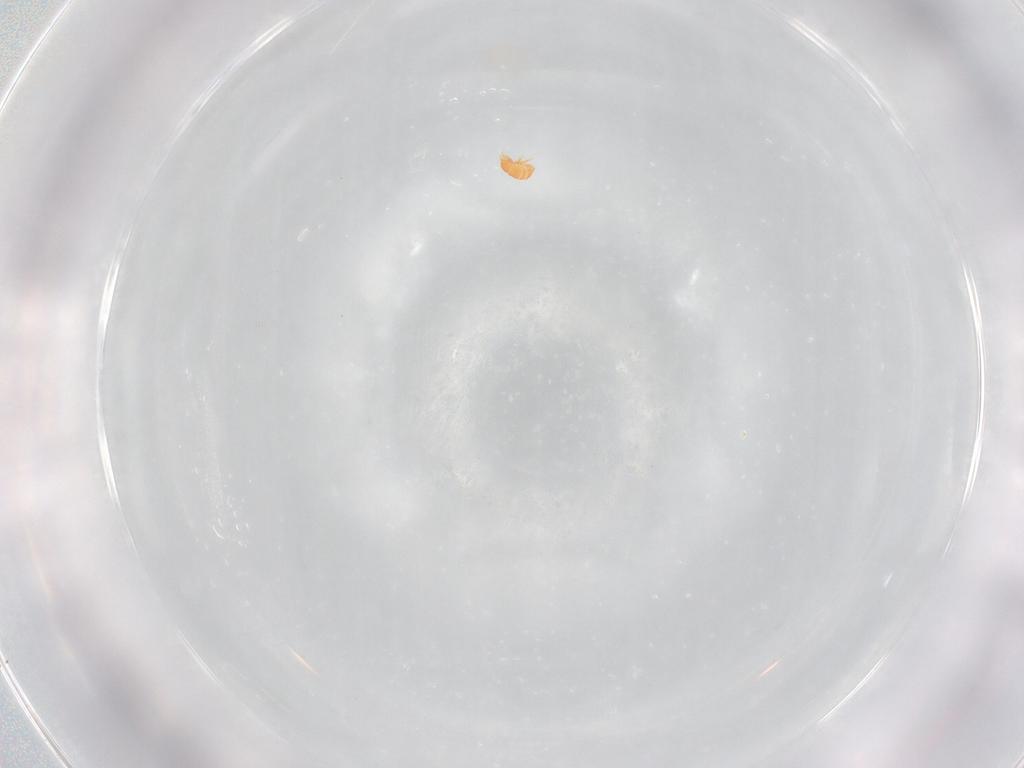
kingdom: Animalia
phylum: Arthropoda
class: Arachnida
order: Sarcoptiformes
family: Brachychthoniidae
